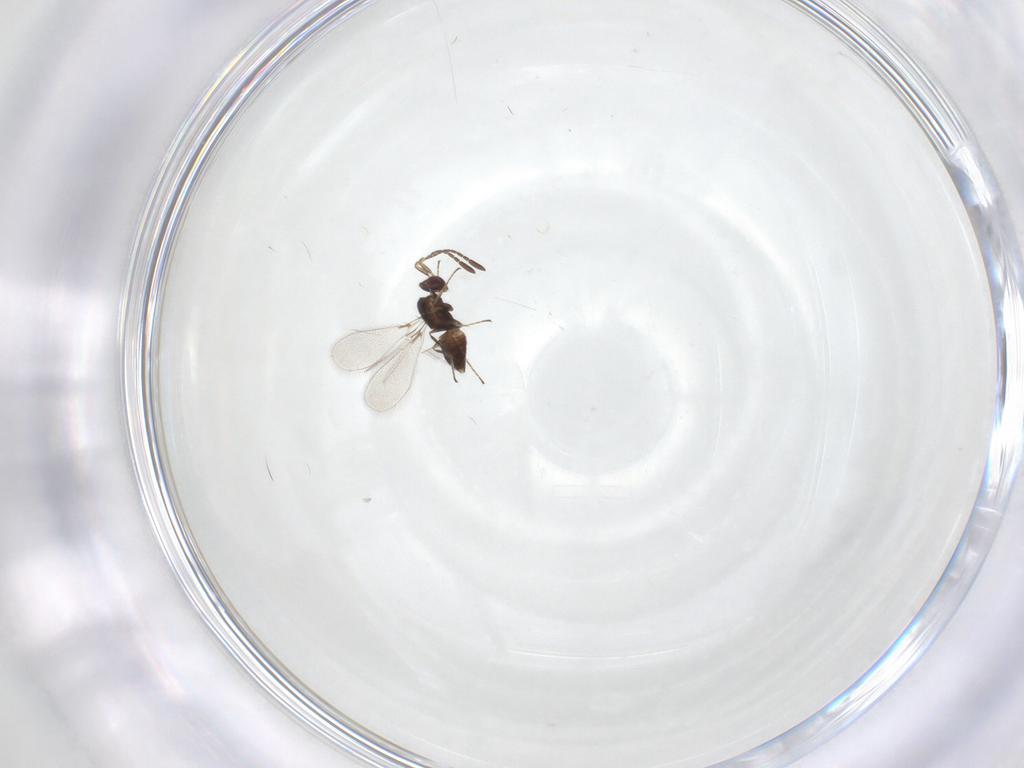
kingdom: Animalia
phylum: Arthropoda
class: Insecta
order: Hymenoptera
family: Mymaridae
